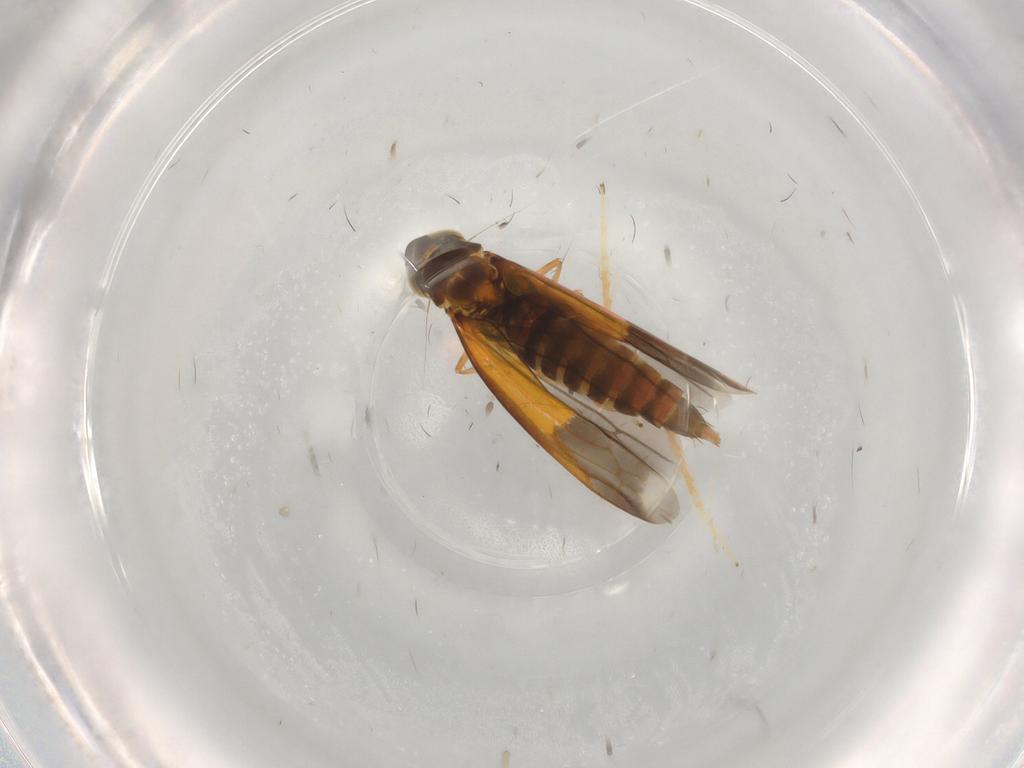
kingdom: Animalia
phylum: Arthropoda
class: Insecta
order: Hemiptera
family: Cicadellidae
